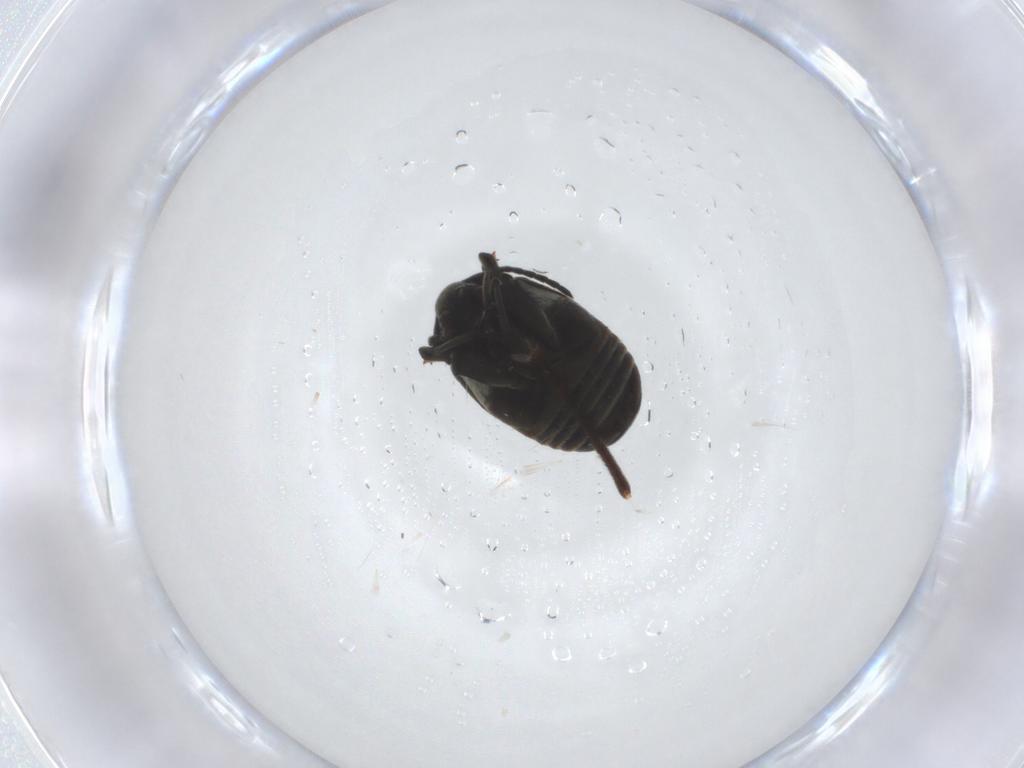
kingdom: Animalia
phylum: Arthropoda
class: Insecta
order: Coleoptera
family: Chrysomelidae
